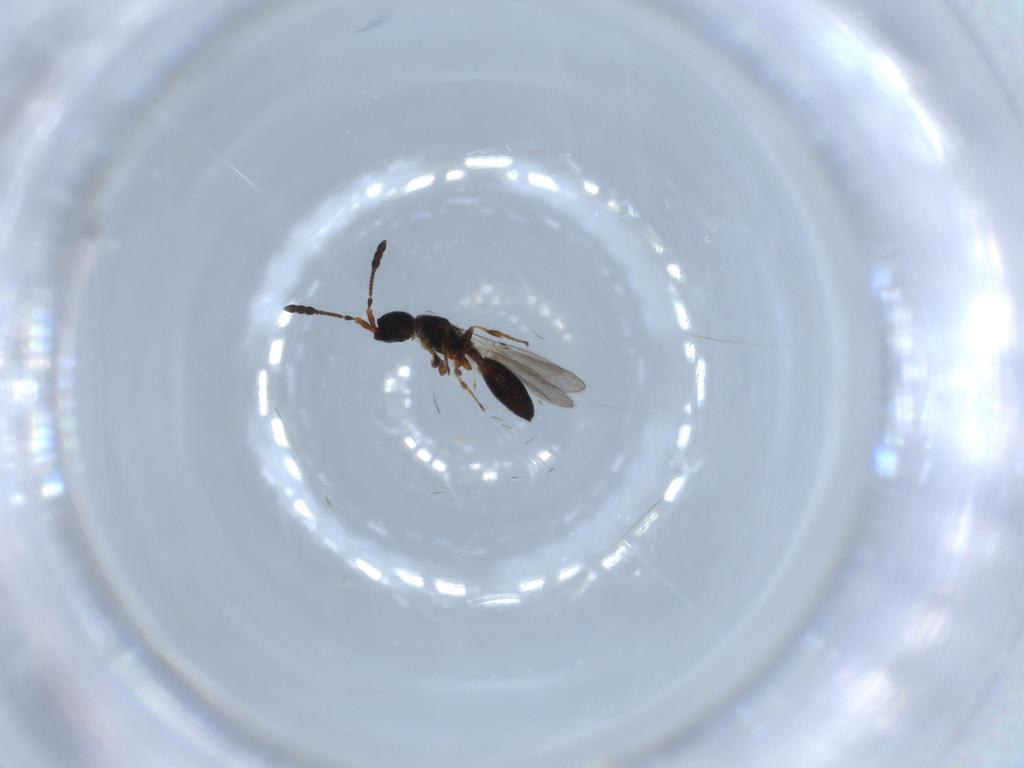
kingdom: Animalia
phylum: Arthropoda
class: Insecta
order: Hymenoptera
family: Diapriidae
